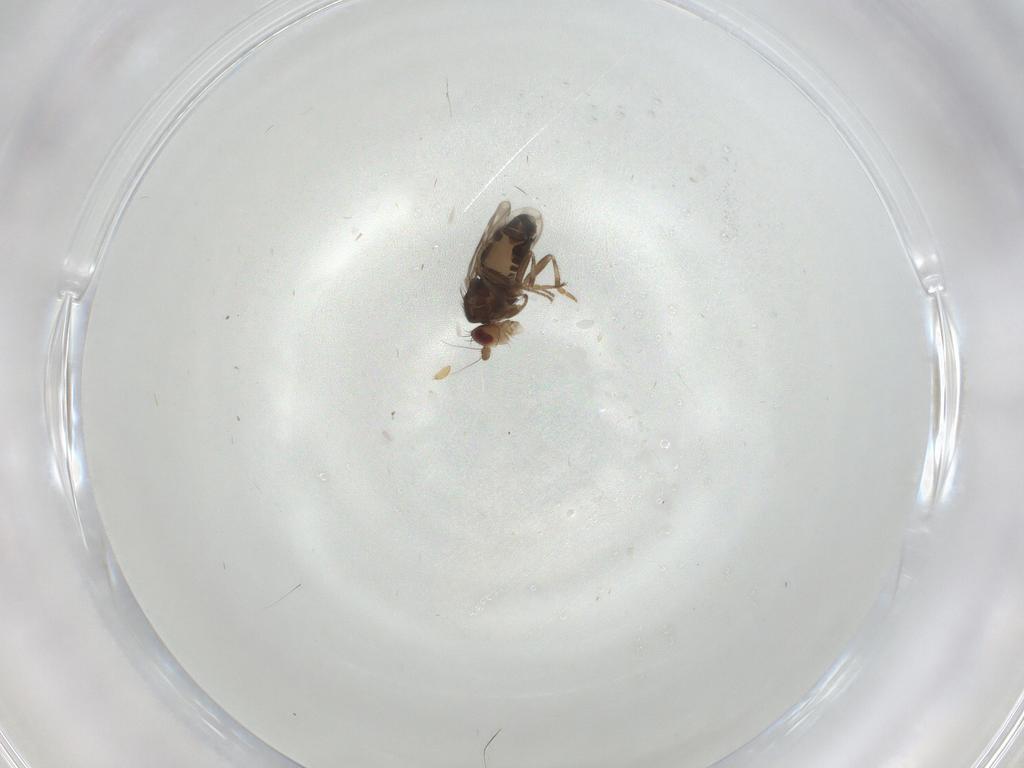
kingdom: Animalia
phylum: Arthropoda
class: Insecta
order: Diptera
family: Sphaeroceridae
